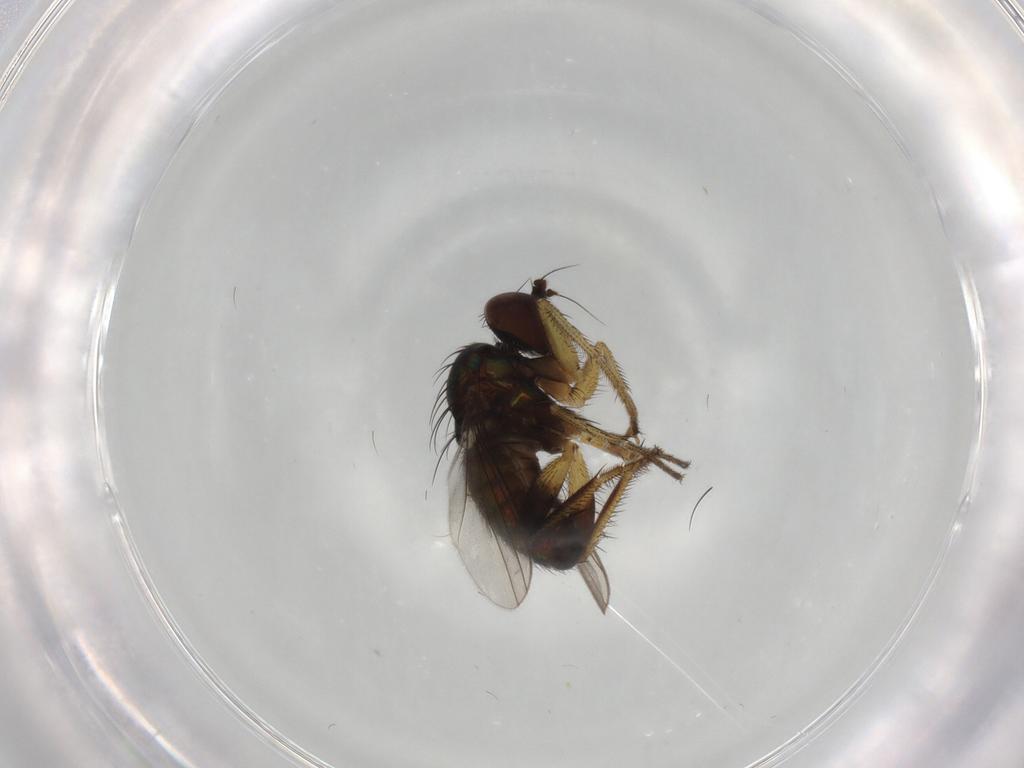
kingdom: Animalia
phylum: Arthropoda
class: Insecta
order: Diptera
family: Dolichopodidae
